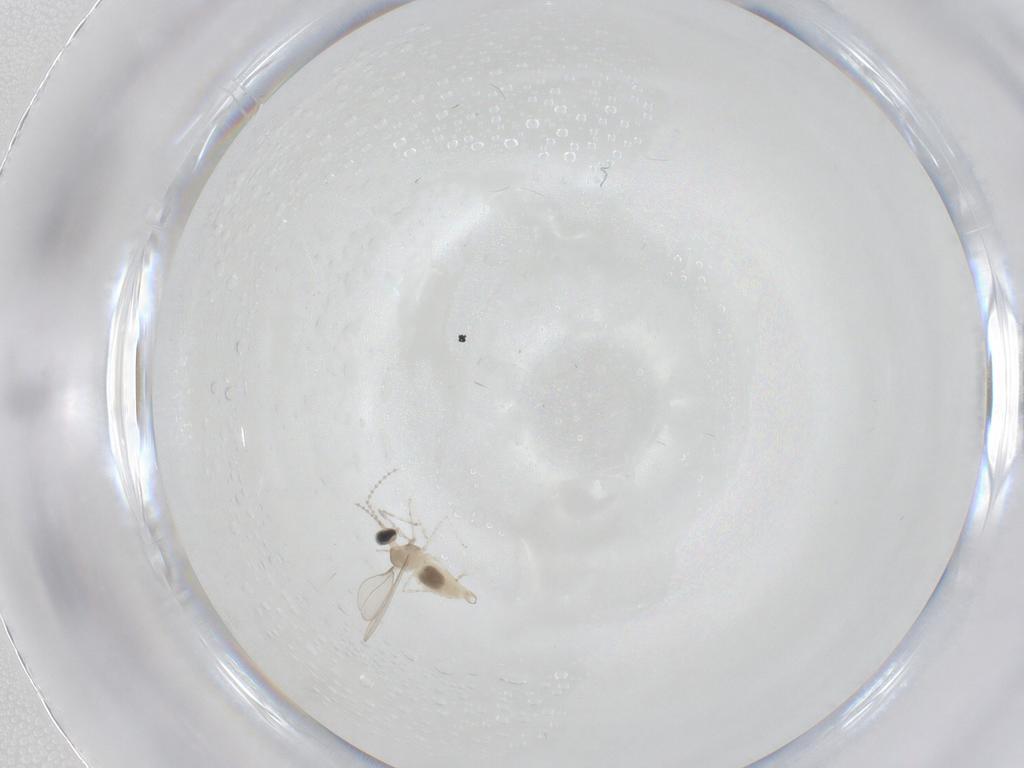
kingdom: Animalia
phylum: Arthropoda
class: Insecta
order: Diptera
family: Cecidomyiidae
